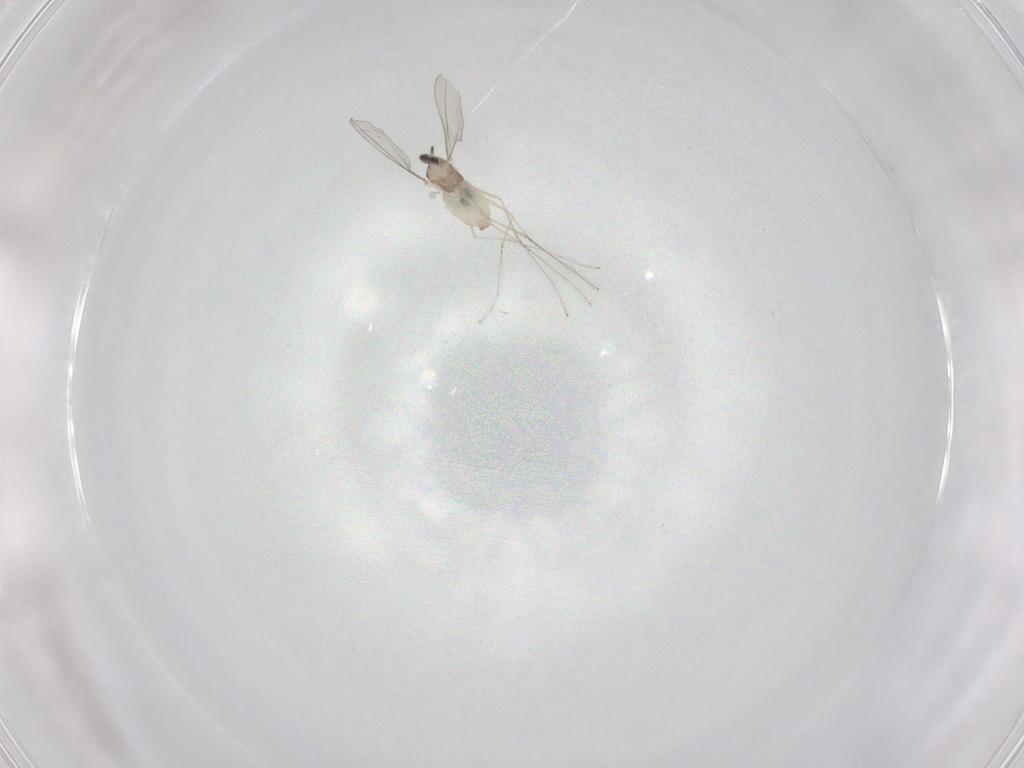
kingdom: Animalia
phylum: Arthropoda
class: Insecta
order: Diptera
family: Cecidomyiidae
